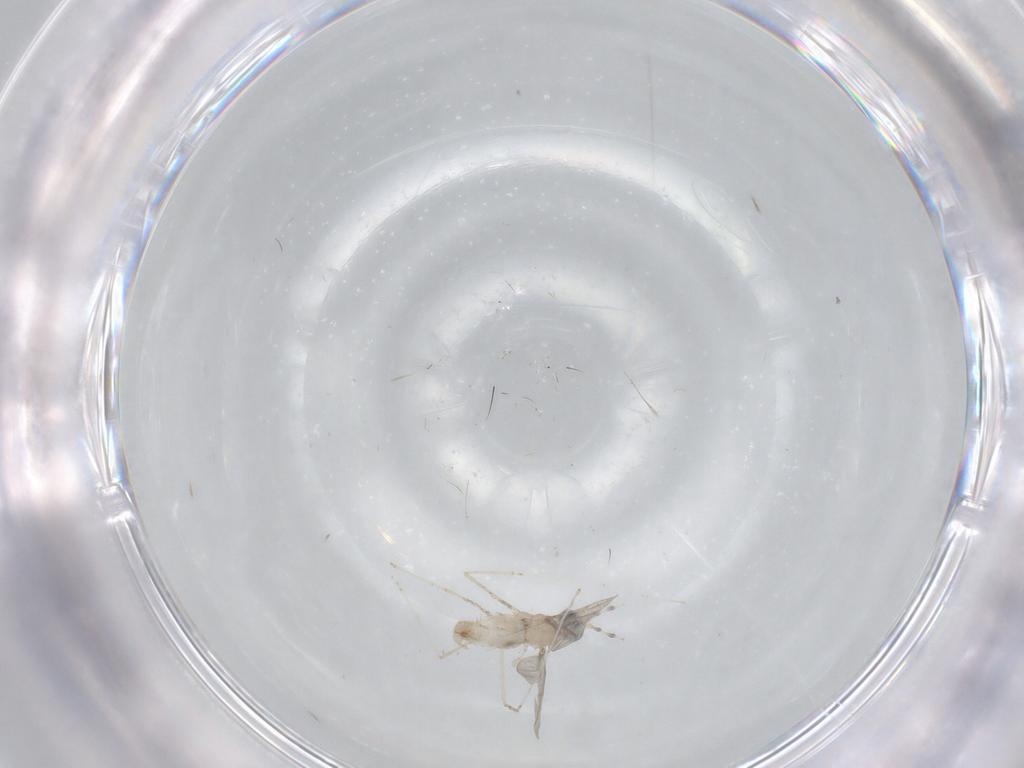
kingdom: Animalia
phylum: Arthropoda
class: Insecta
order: Diptera
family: Cecidomyiidae
